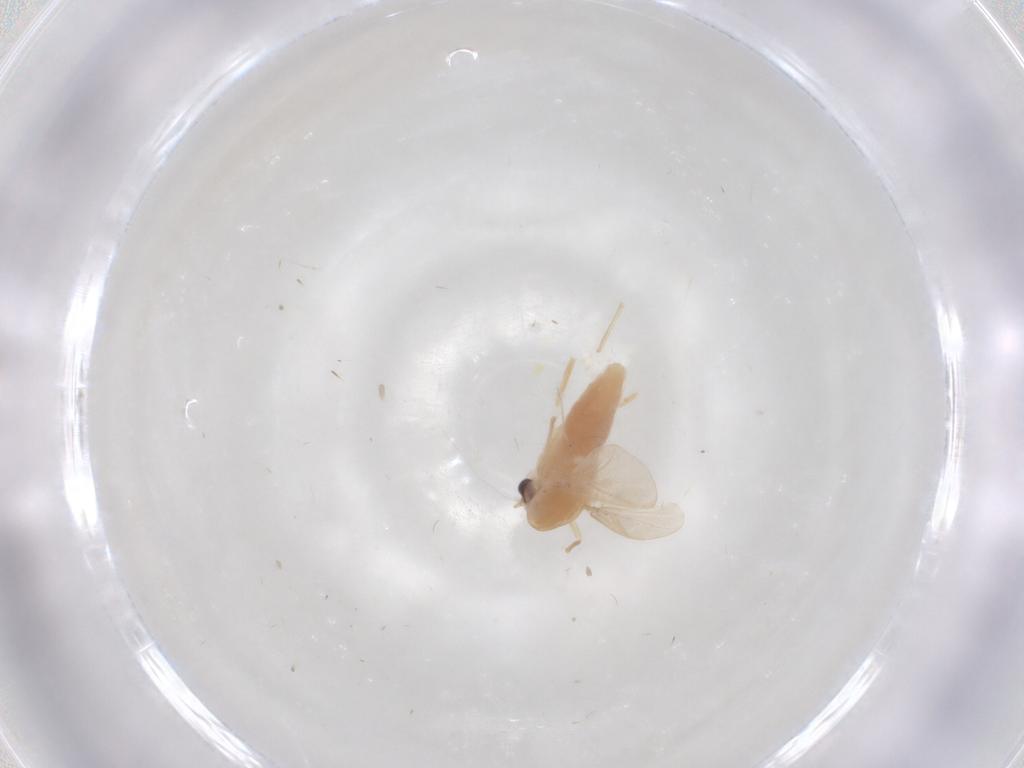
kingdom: Animalia
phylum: Arthropoda
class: Insecta
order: Diptera
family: Chironomidae
